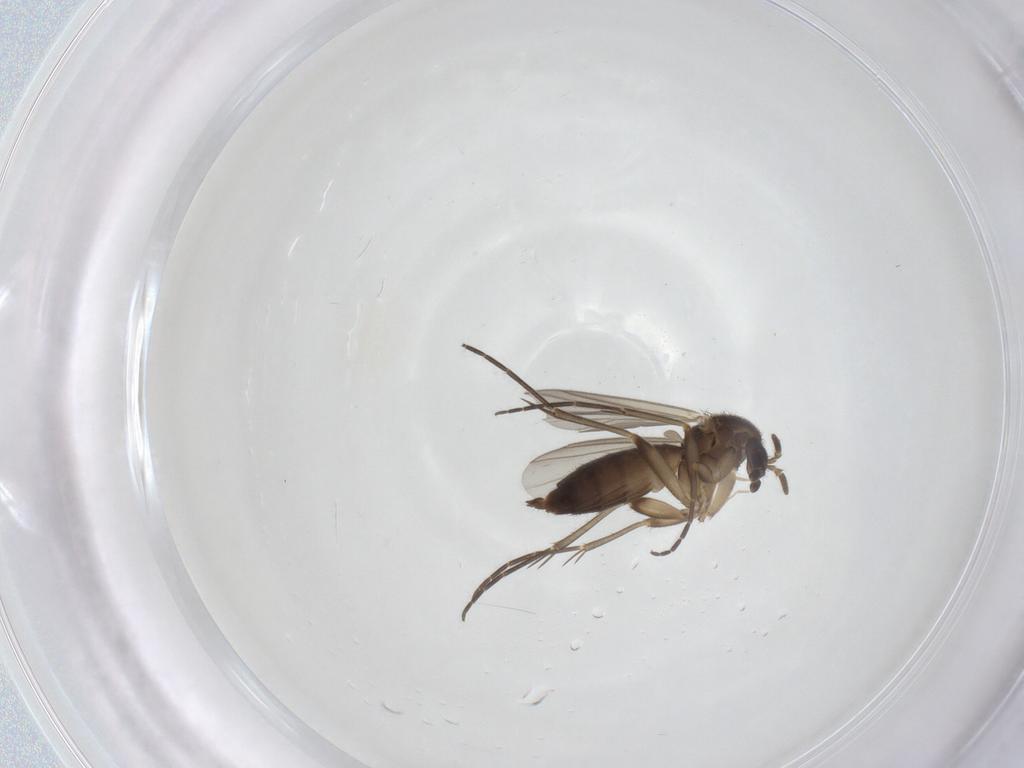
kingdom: Animalia
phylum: Arthropoda
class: Insecta
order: Diptera
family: Mycetophilidae
